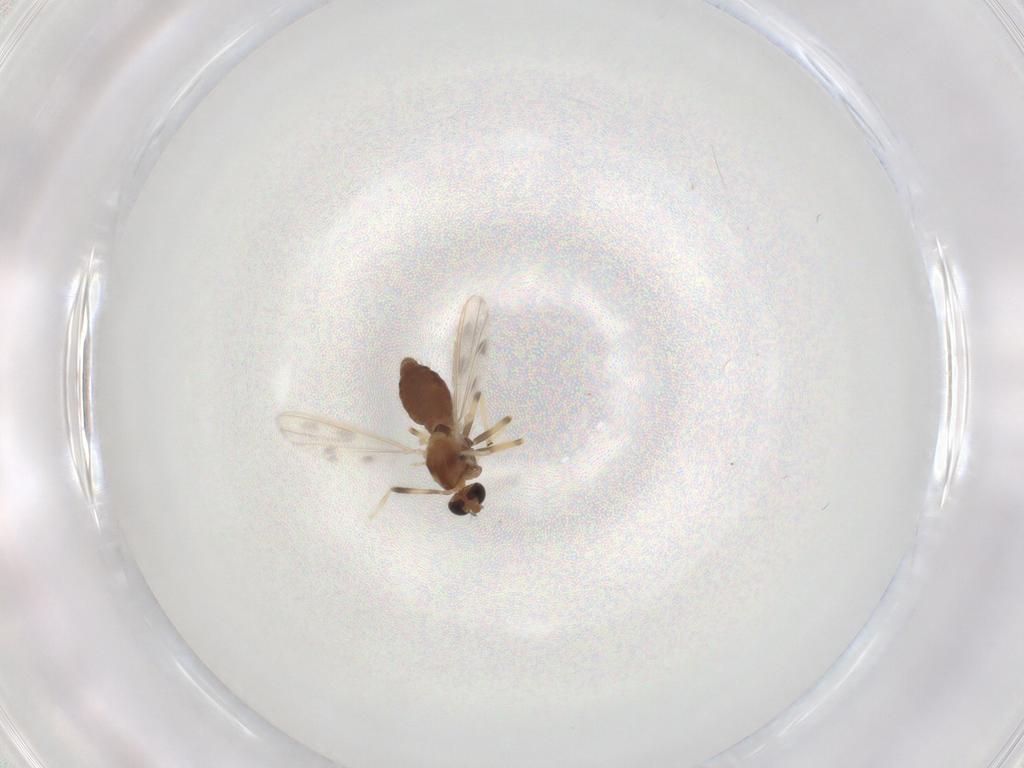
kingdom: Animalia
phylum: Arthropoda
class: Insecta
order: Diptera
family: Chironomidae
